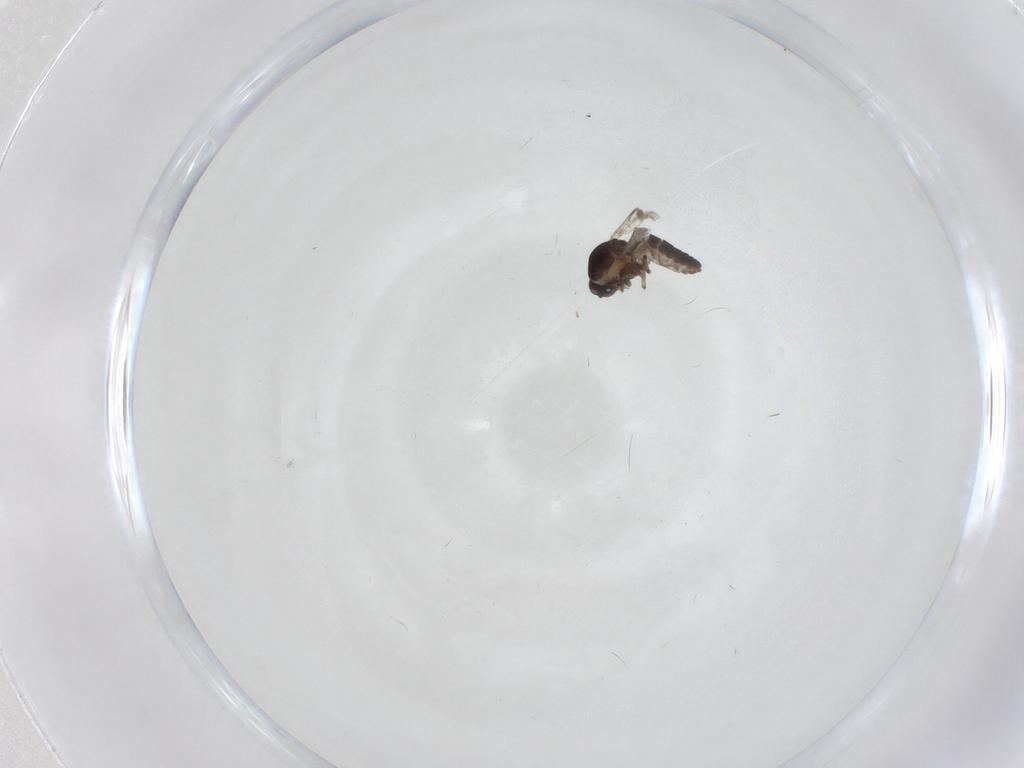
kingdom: Animalia
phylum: Arthropoda
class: Insecta
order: Diptera
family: Cecidomyiidae
